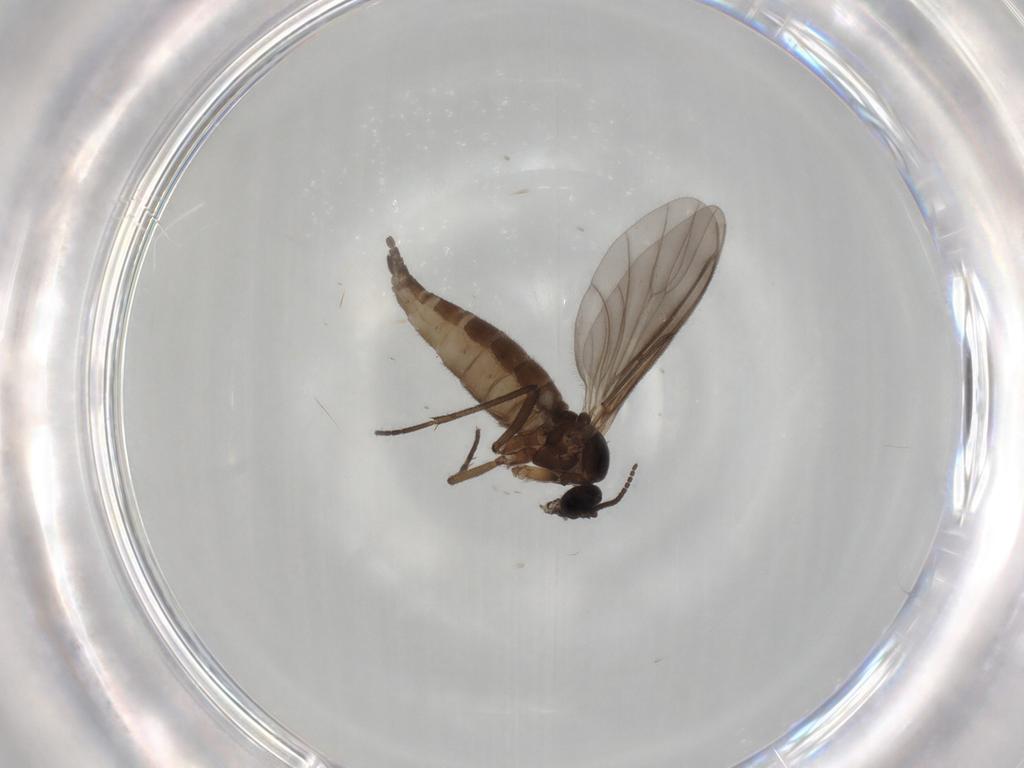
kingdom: Animalia
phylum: Arthropoda
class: Insecta
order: Diptera
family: Sciaridae
